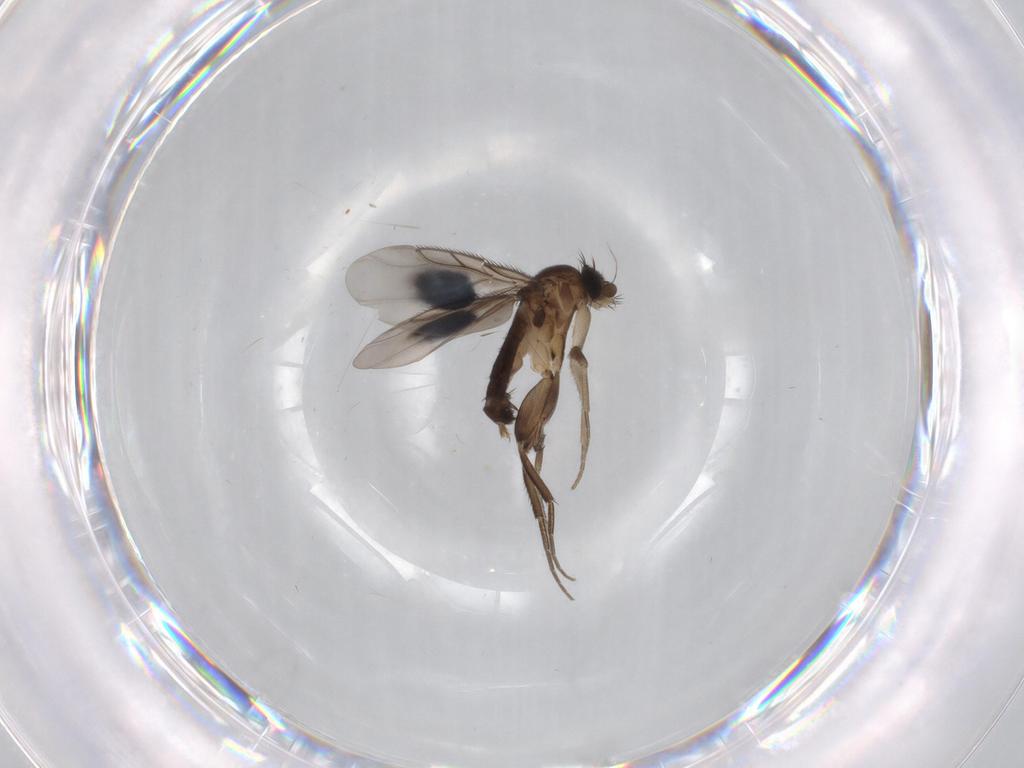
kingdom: Animalia
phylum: Arthropoda
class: Insecta
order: Diptera
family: Phoridae
